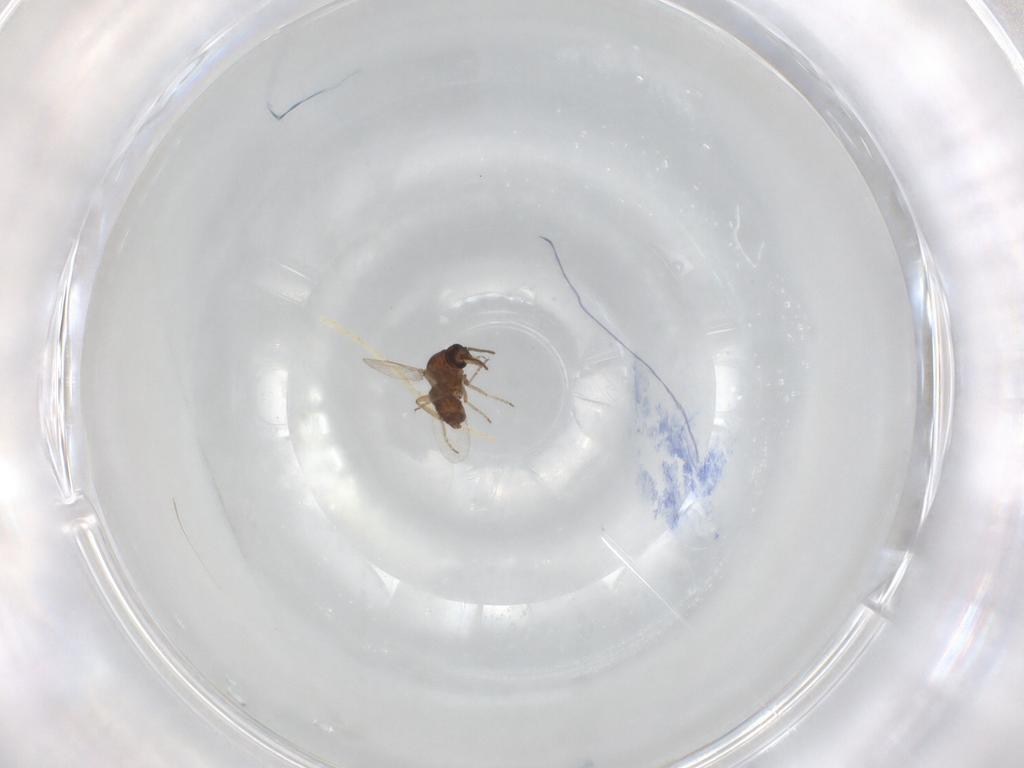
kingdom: Animalia
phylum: Arthropoda
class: Insecta
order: Diptera
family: Ceratopogonidae
